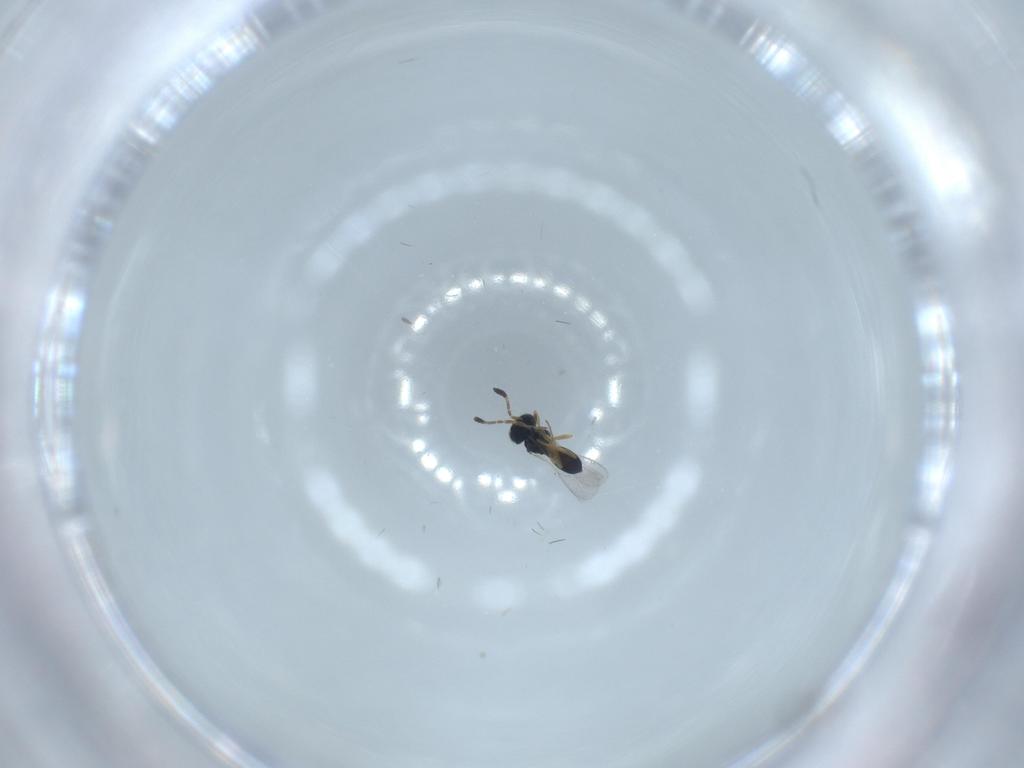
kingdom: Animalia
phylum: Arthropoda
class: Insecta
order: Hymenoptera
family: Scelionidae
